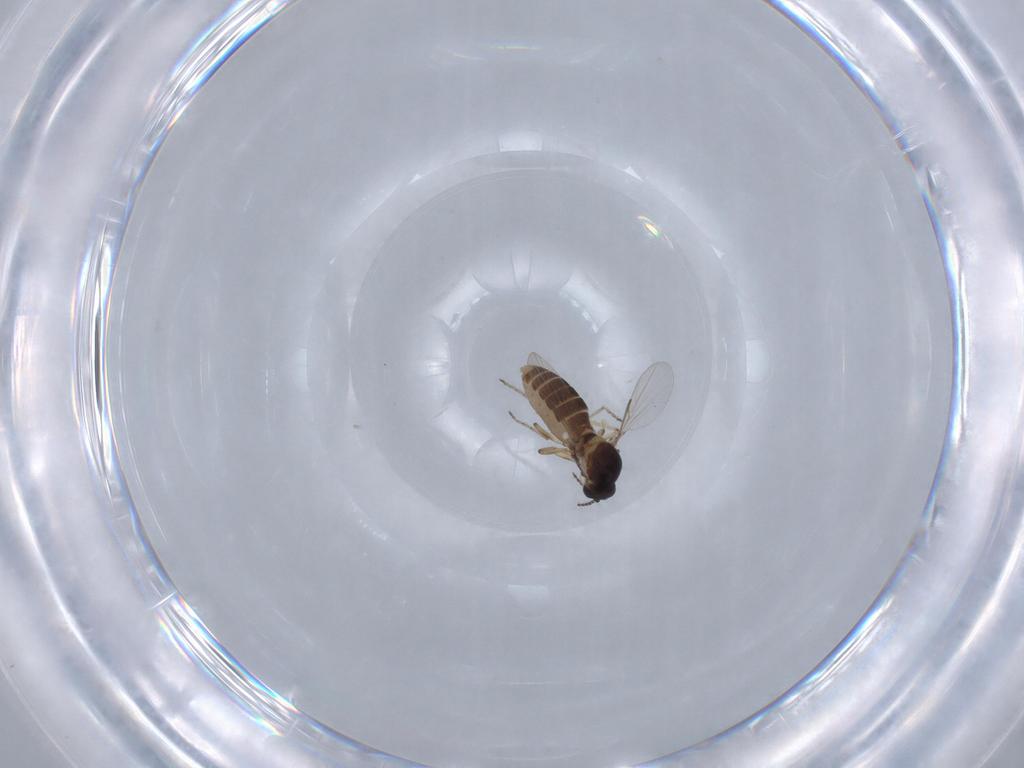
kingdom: Animalia
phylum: Arthropoda
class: Insecta
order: Diptera
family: Ceratopogonidae
